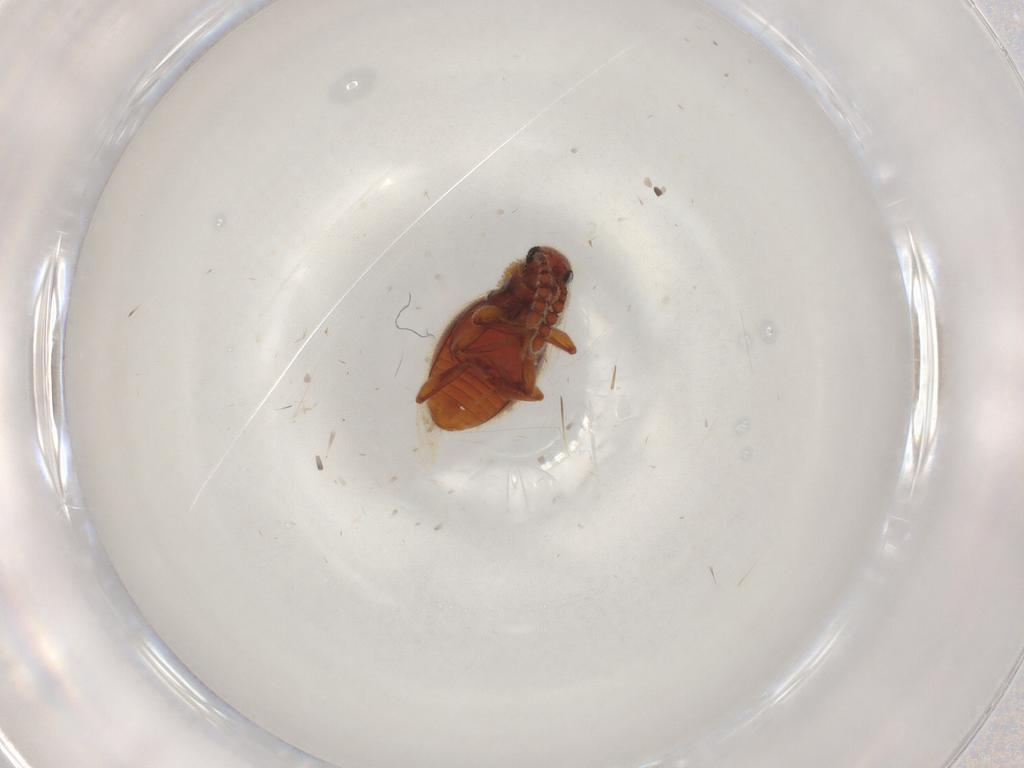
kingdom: Animalia
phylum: Arthropoda
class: Insecta
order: Coleoptera
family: Staphylinidae
